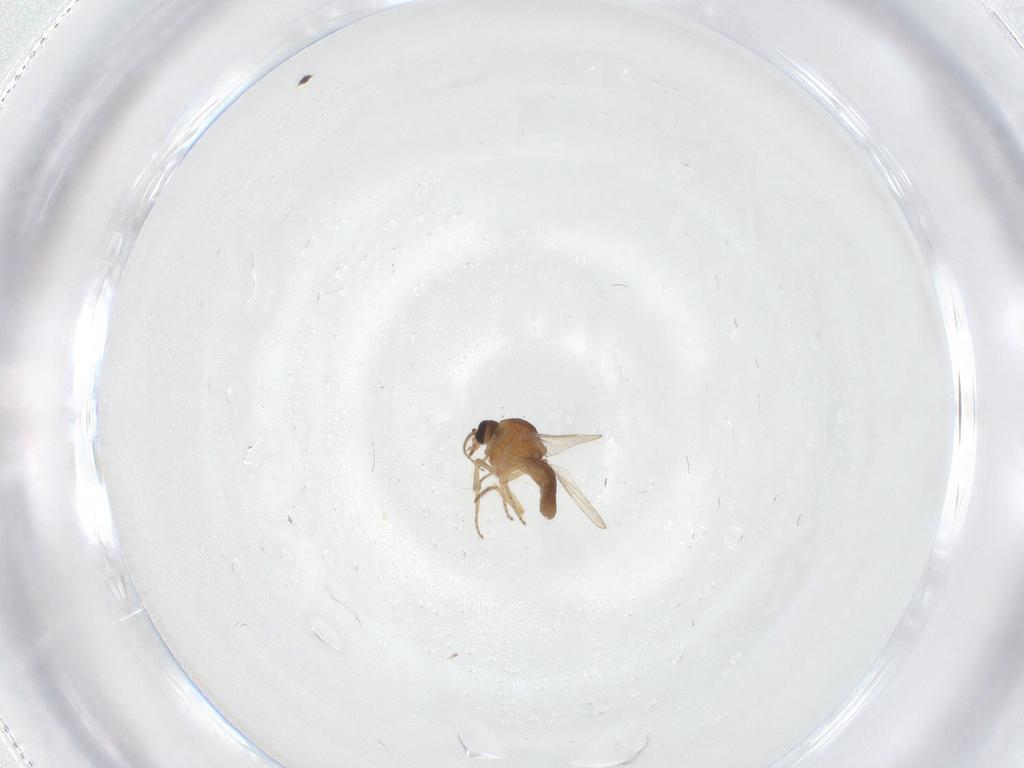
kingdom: Animalia
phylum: Arthropoda
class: Insecta
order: Diptera
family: Ceratopogonidae
